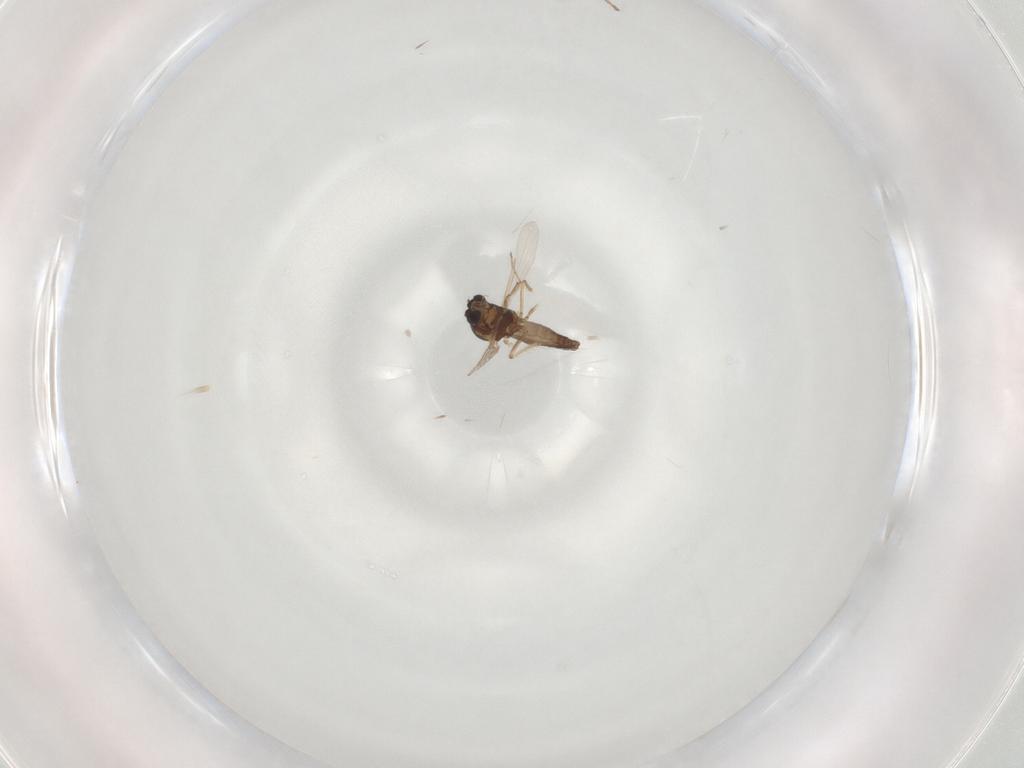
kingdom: Animalia
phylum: Arthropoda
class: Insecta
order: Diptera
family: Ceratopogonidae
